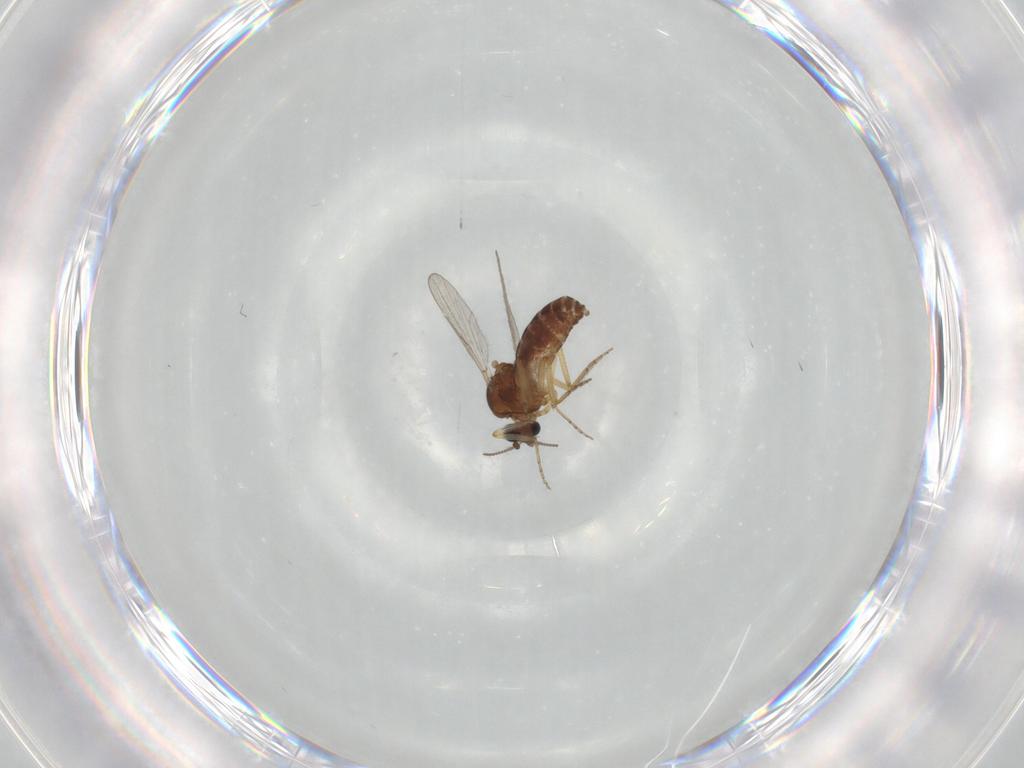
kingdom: Animalia
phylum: Arthropoda
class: Insecta
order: Diptera
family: Ceratopogonidae
